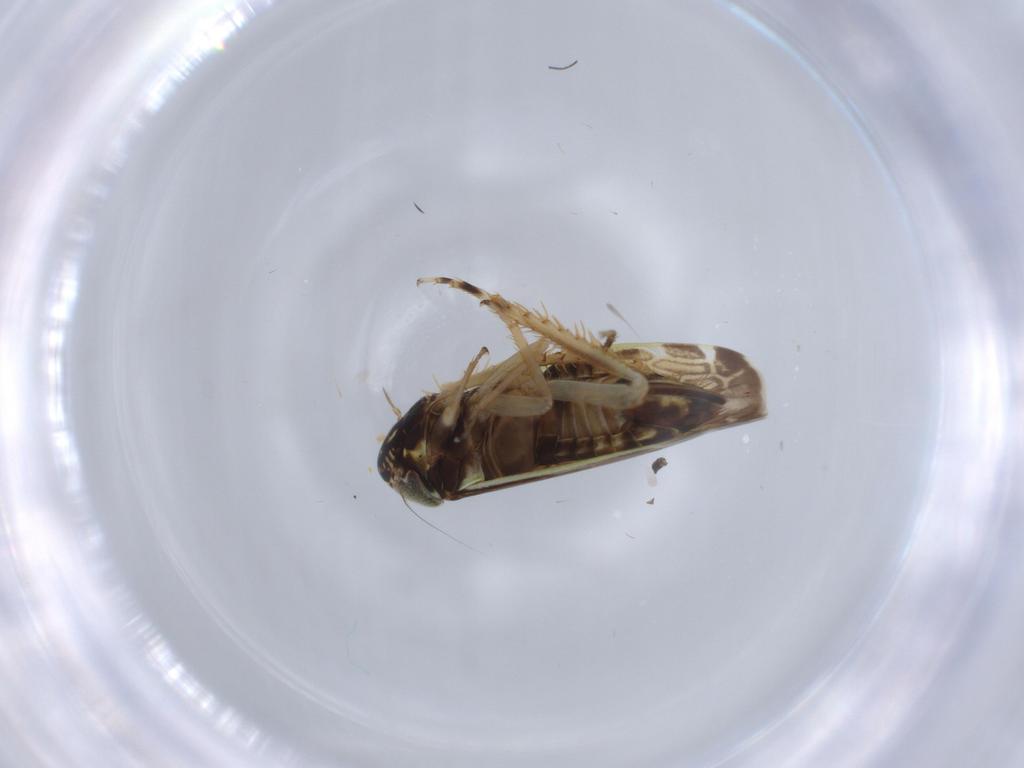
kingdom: Animalia
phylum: Arthropoda
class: Insecta
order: Hemiptera
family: Cicadellidae
